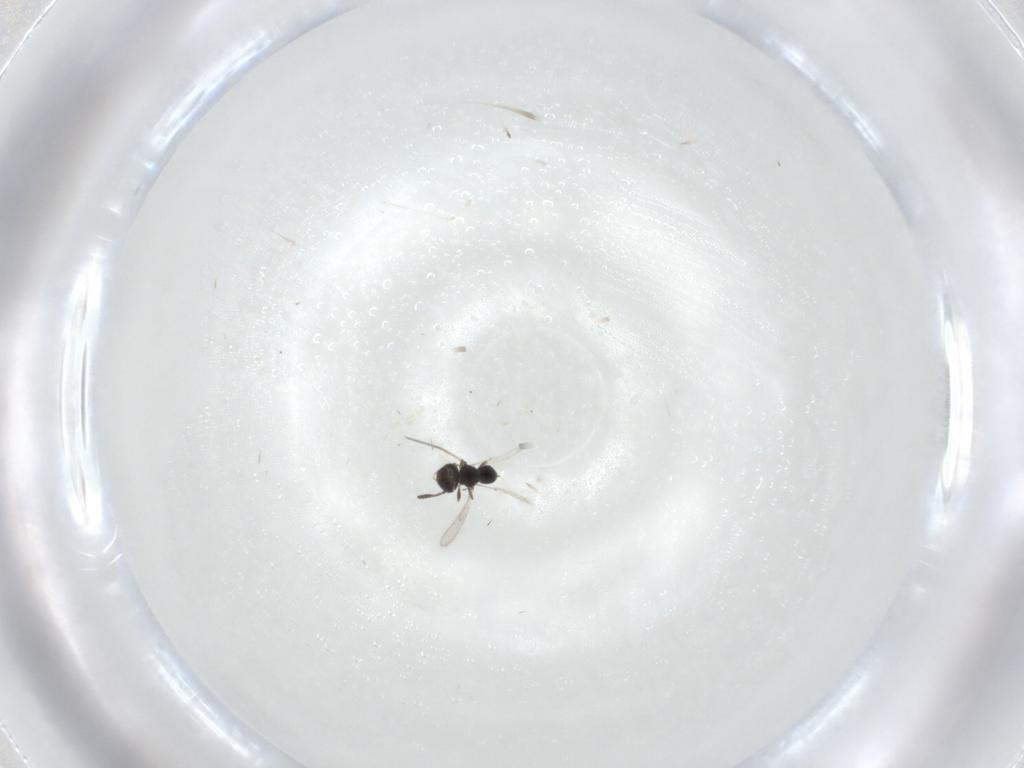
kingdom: Animalia
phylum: Arthropoda
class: Insecta
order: Hymenoptera
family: Scelionidae
